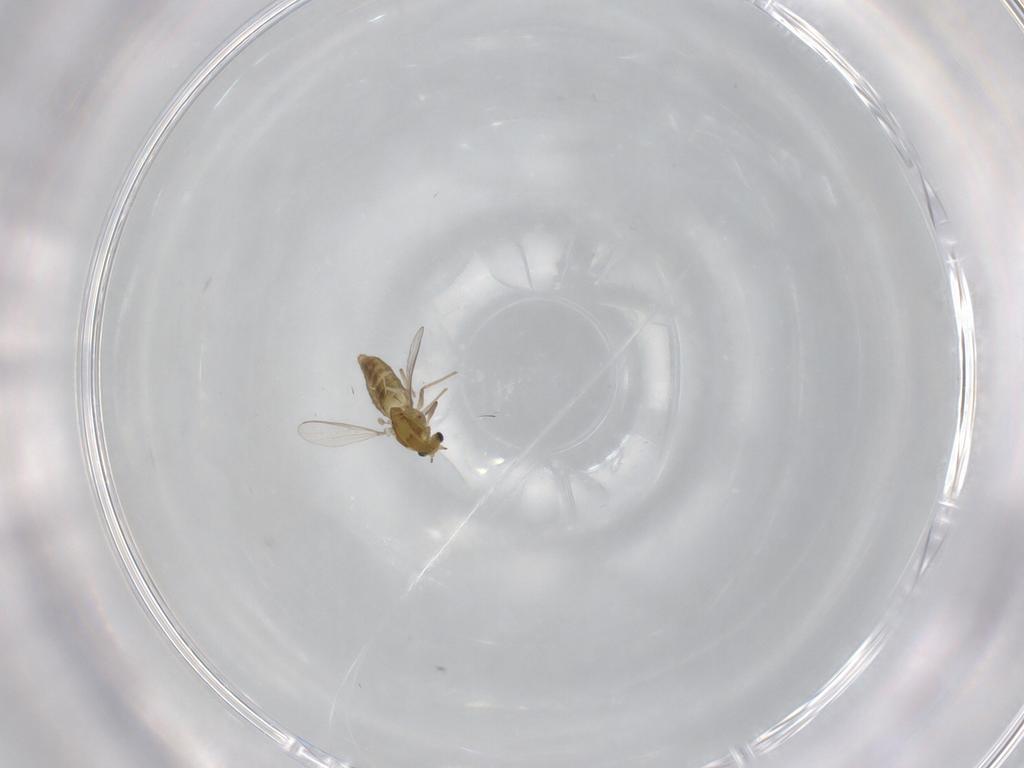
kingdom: Animalia
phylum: Arthropoda
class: Insecta
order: Diptera
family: Chironomidae
